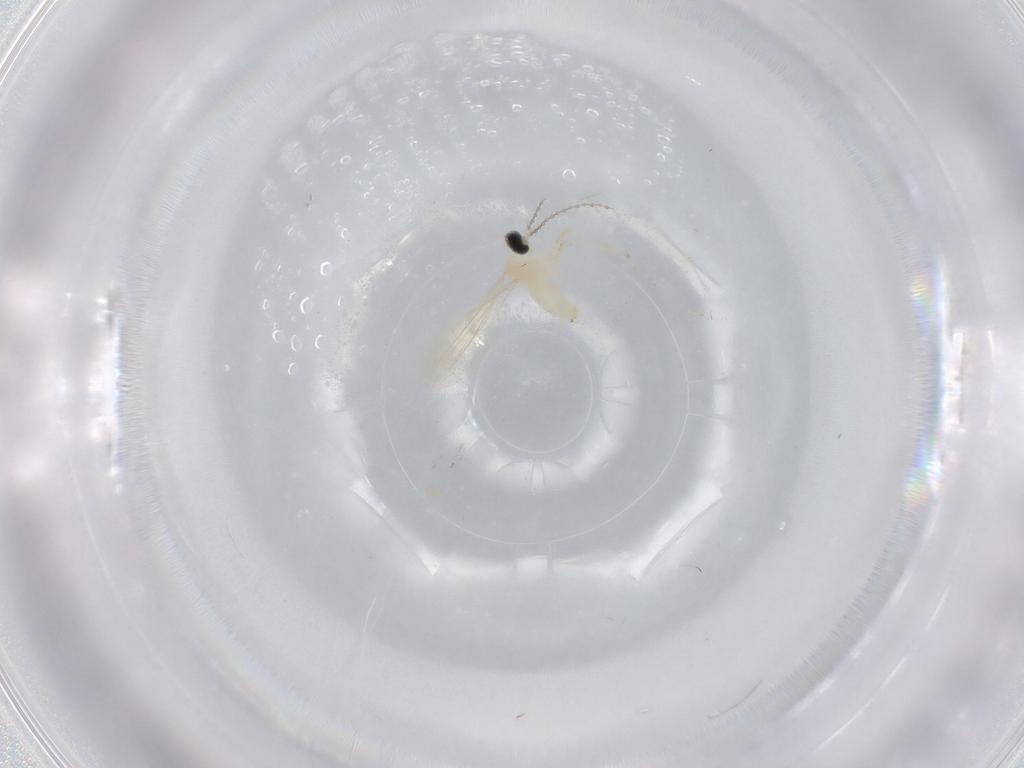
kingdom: Animalia
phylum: Arthropoda
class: Insecta
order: Diptera
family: Cecidomyiidae
